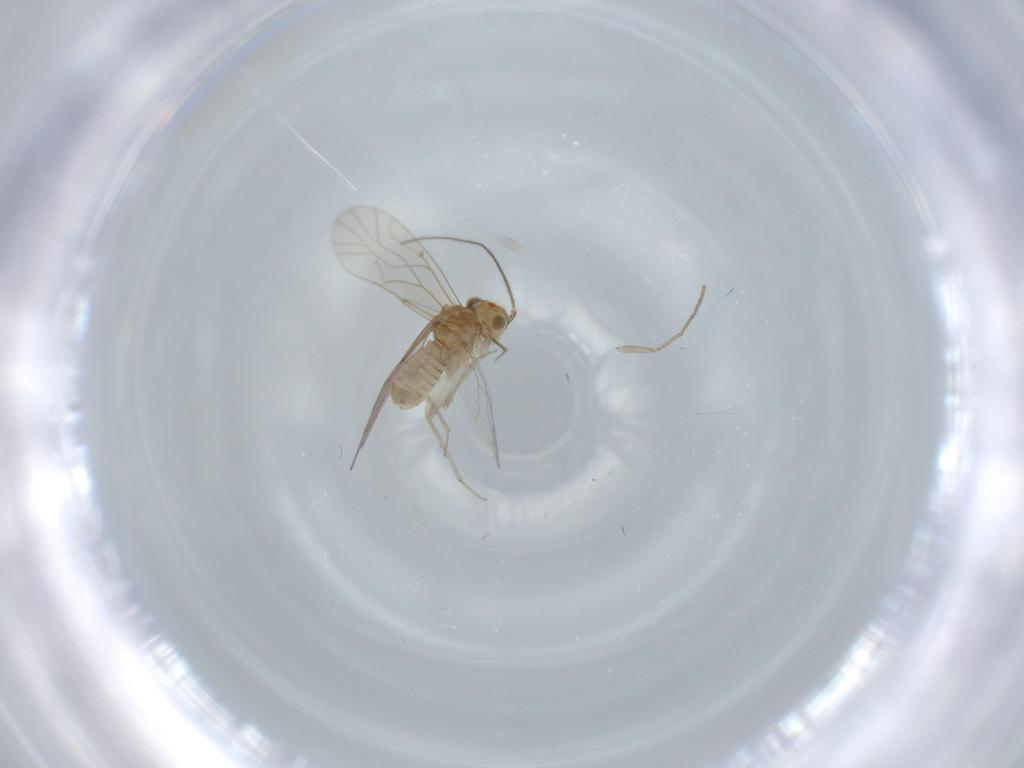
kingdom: Animalia
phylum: Arthropoda
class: Insecta
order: Psocodea
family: Lachesillidae
